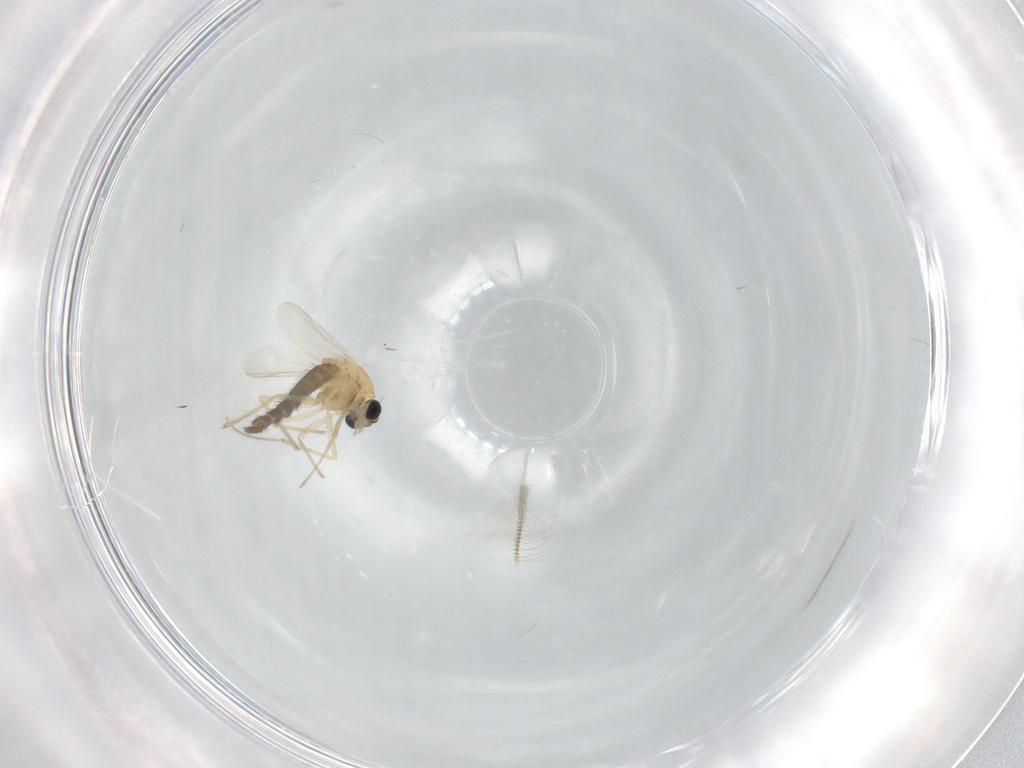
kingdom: Animalia
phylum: Arthropoda
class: Insecta
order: Diptera
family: Chironomidae
